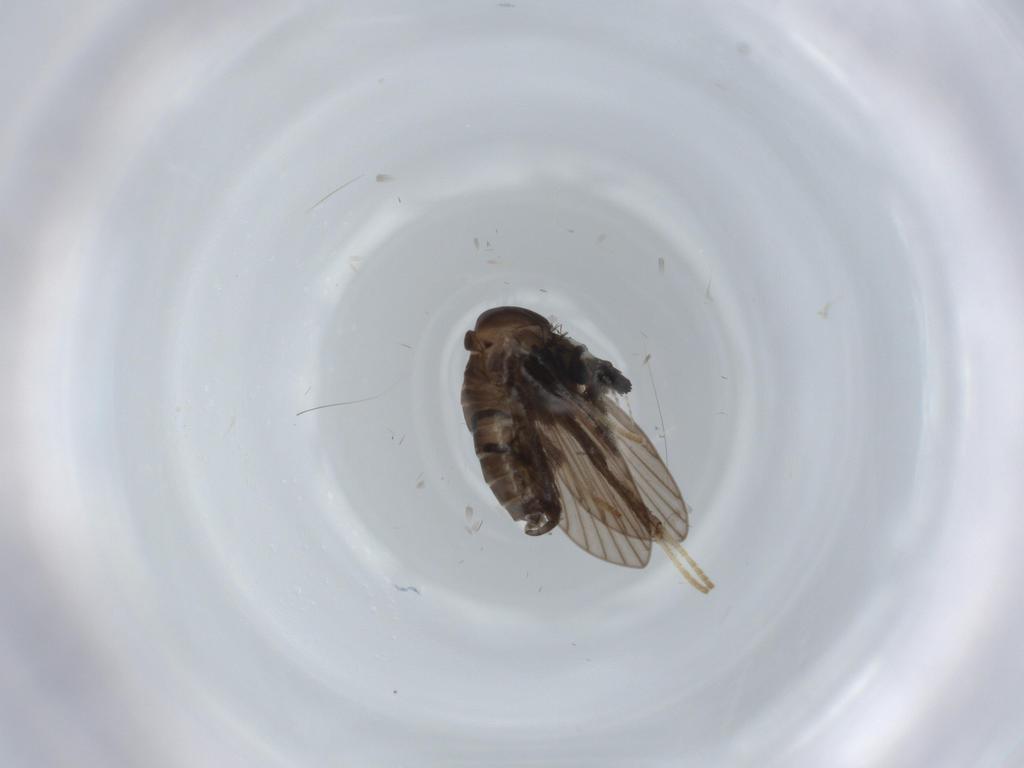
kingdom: Animalia
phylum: Arthropoda
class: Insecta
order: Diptera
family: Hybotidae
